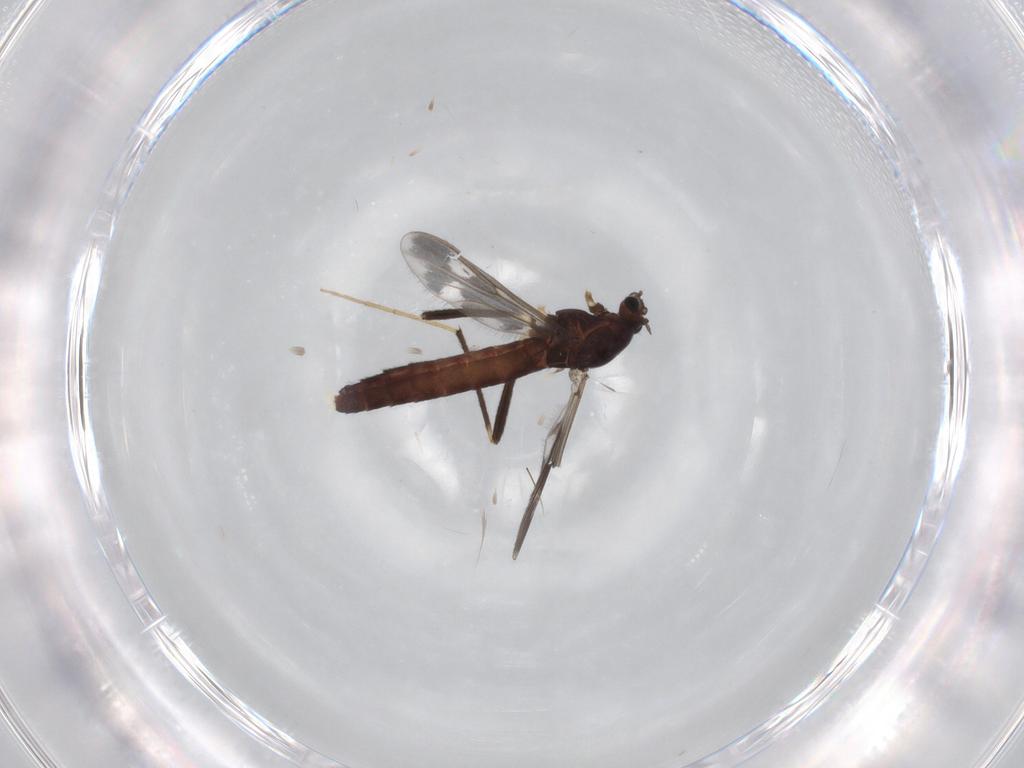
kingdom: Animalia
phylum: Arthropoda
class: Insecta
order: Diptera
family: Chironomidae
